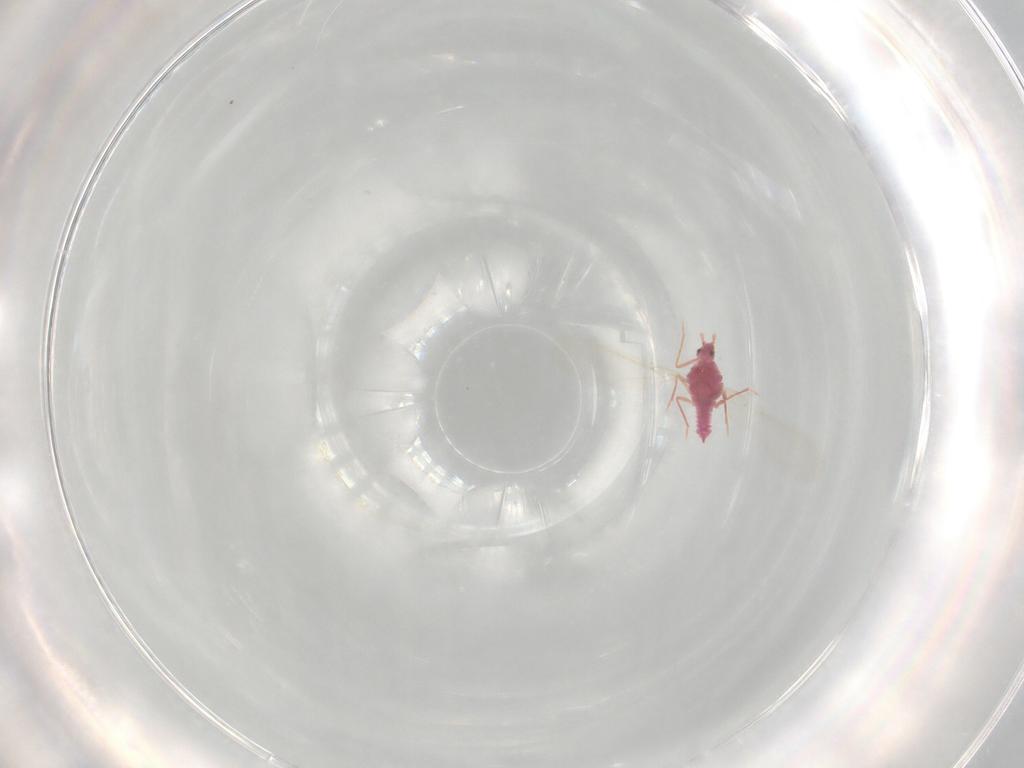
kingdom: Animalia
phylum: Arthropoda
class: Insecta
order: Hemiptera
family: Pseudococcidae
